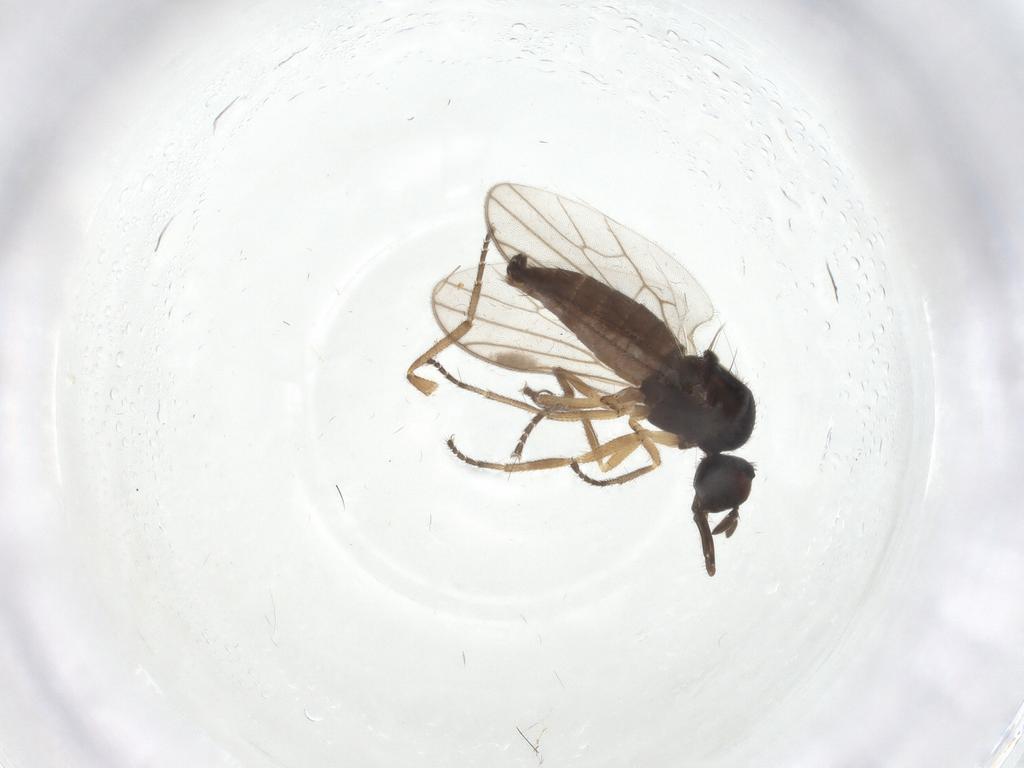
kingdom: Animalia
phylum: Arthropoda
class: Insecta
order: Diptera
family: Hybotidae
